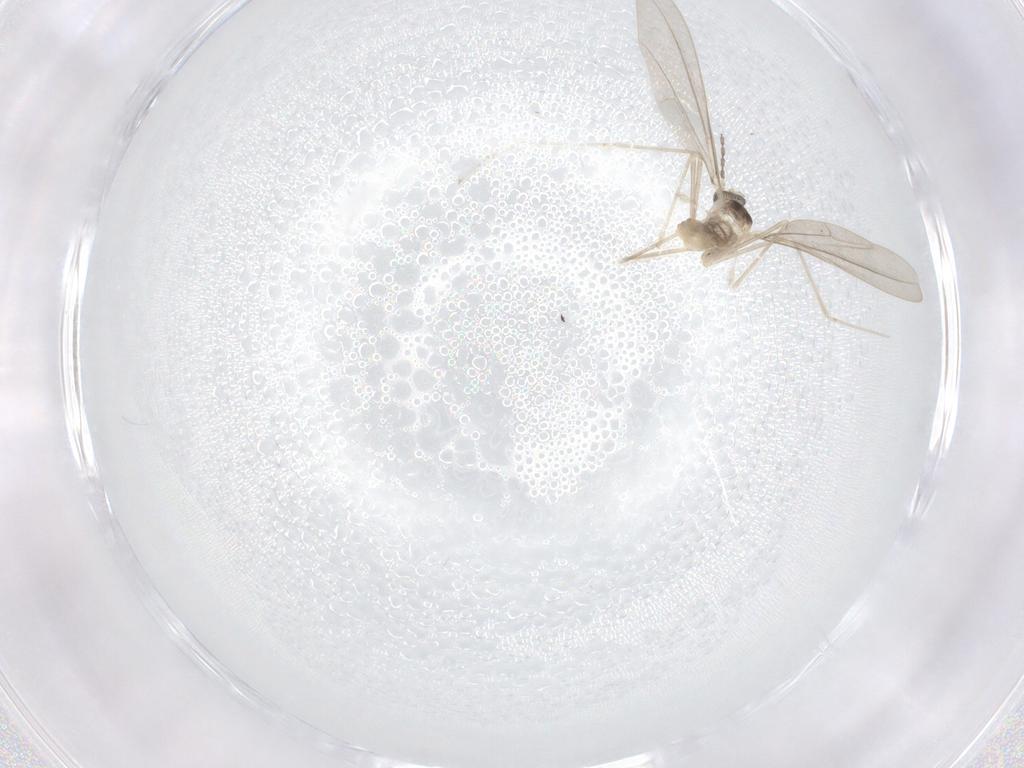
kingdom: Animalia
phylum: Arthropoda
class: Insecta
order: Diptera
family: Cecidomyiidae
